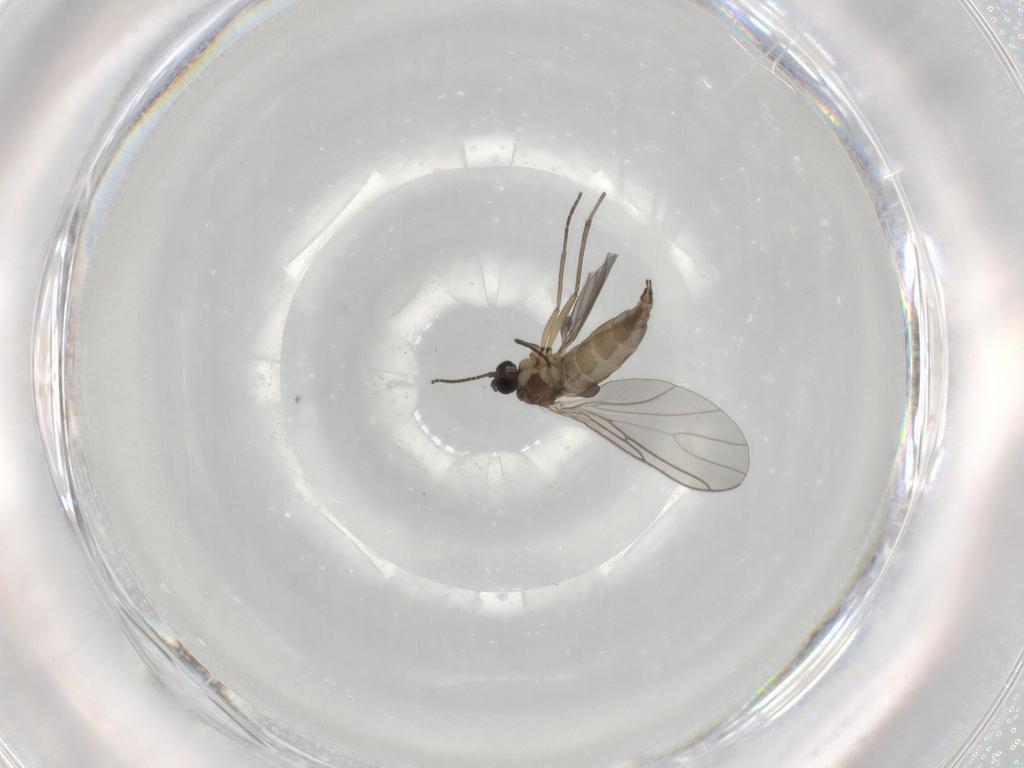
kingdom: Animalia
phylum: Arthropoda
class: Insecta
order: Diptera
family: Sciaridae
